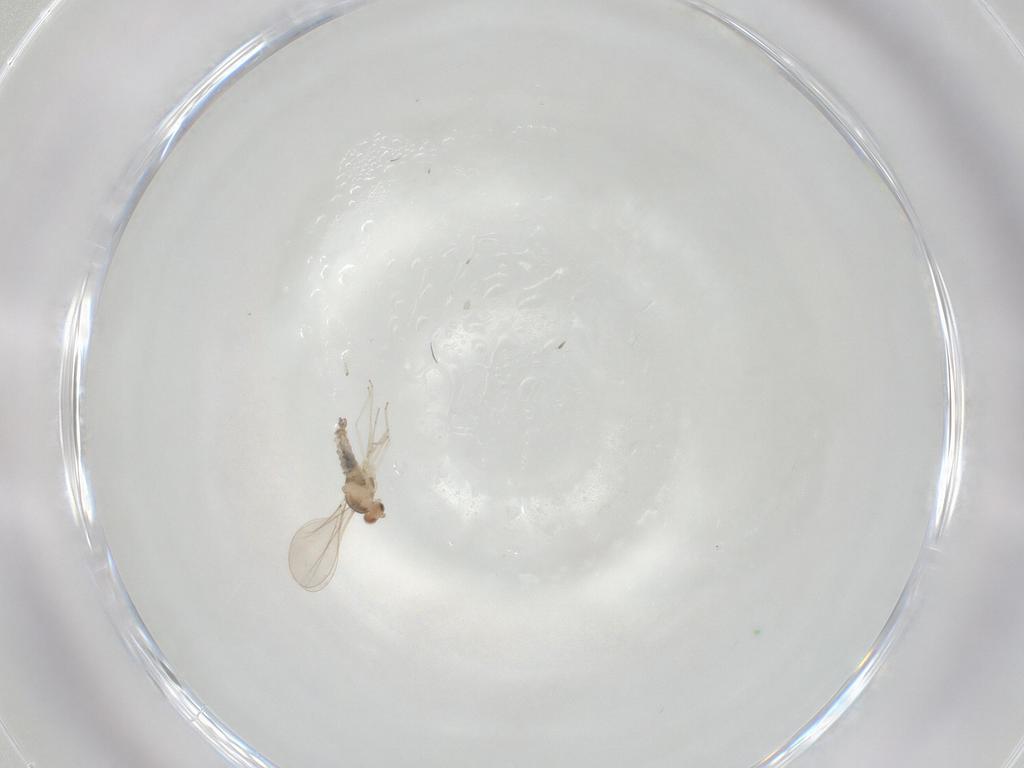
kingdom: Animalia
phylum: Arthropoda
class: Insecta
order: Diptera
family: Cecidomyiidae
